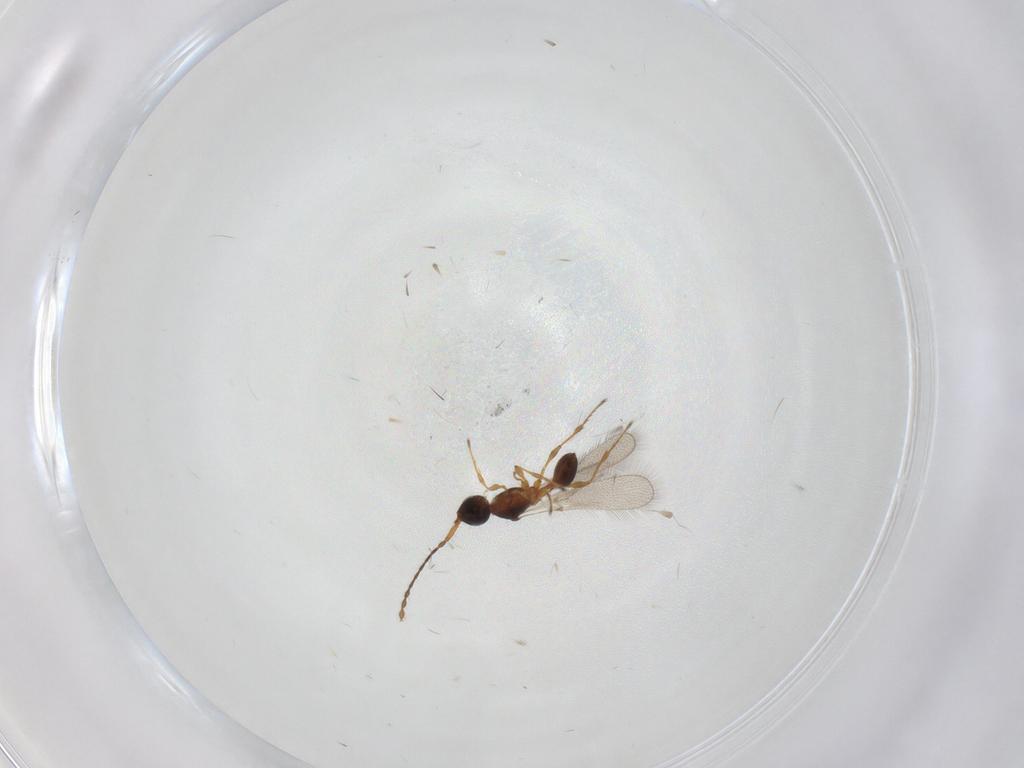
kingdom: Animalia
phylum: Arthropoda
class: Insecta
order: Hymenoptera
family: Diapriidae
